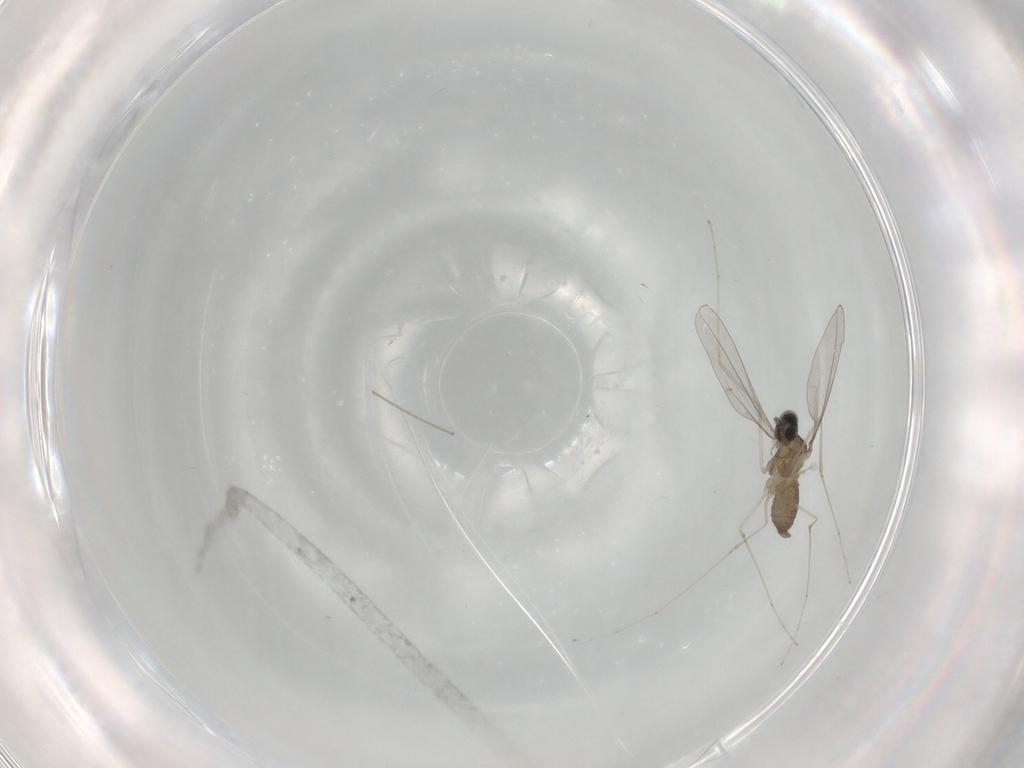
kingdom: Animalia
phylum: Arthropoda
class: Insecta
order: Diptera
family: Cecidomyiidae
